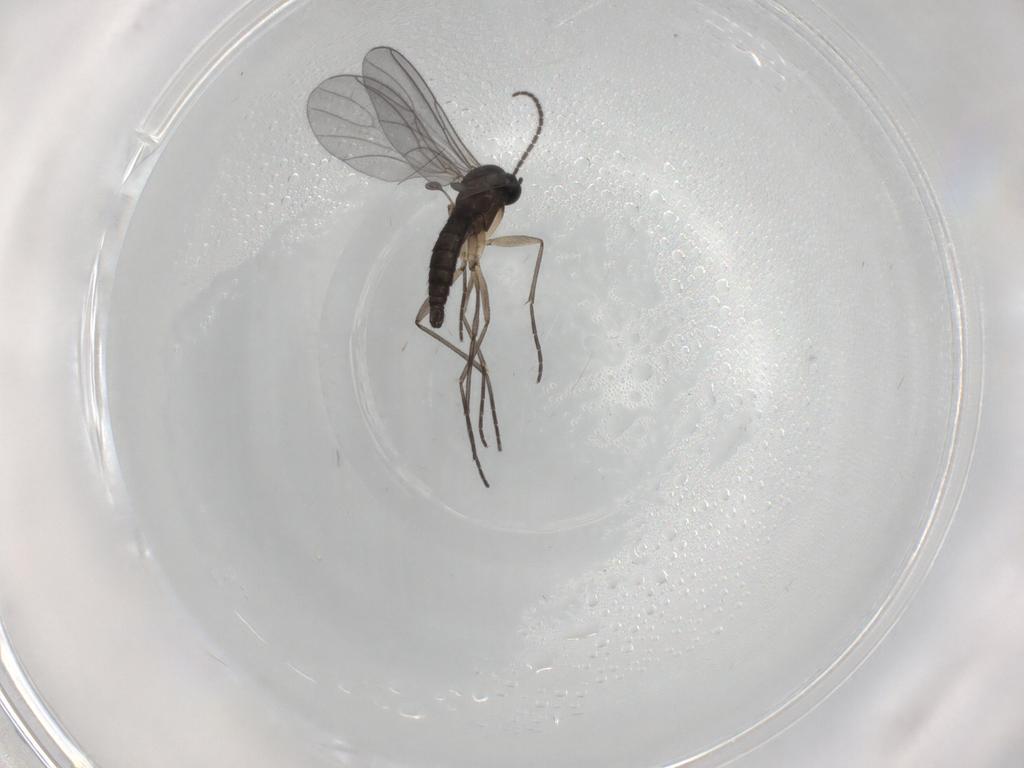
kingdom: Animalia
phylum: Arthropoda
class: Insecta
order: Diptera
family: Sciaridae
